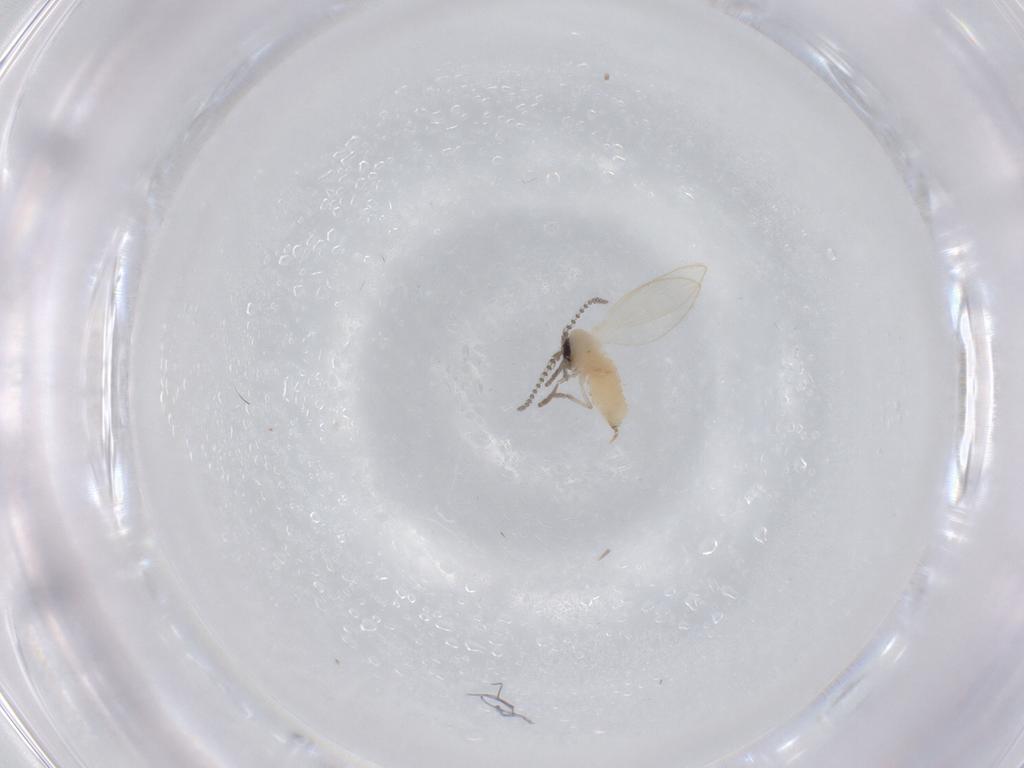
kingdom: Animalia
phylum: Arthropoda
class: Insecta
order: Diptera
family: Psychodidae
